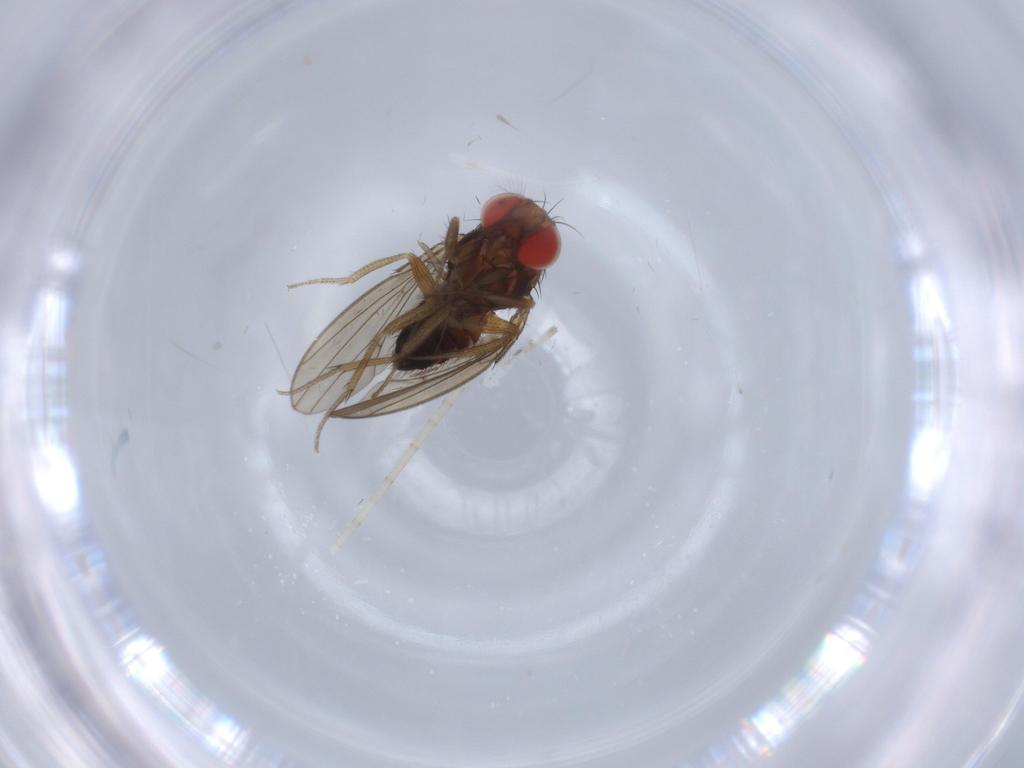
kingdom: Animalia
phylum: Arthropoda
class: Insecta
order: Diptera
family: Drosophilidae
